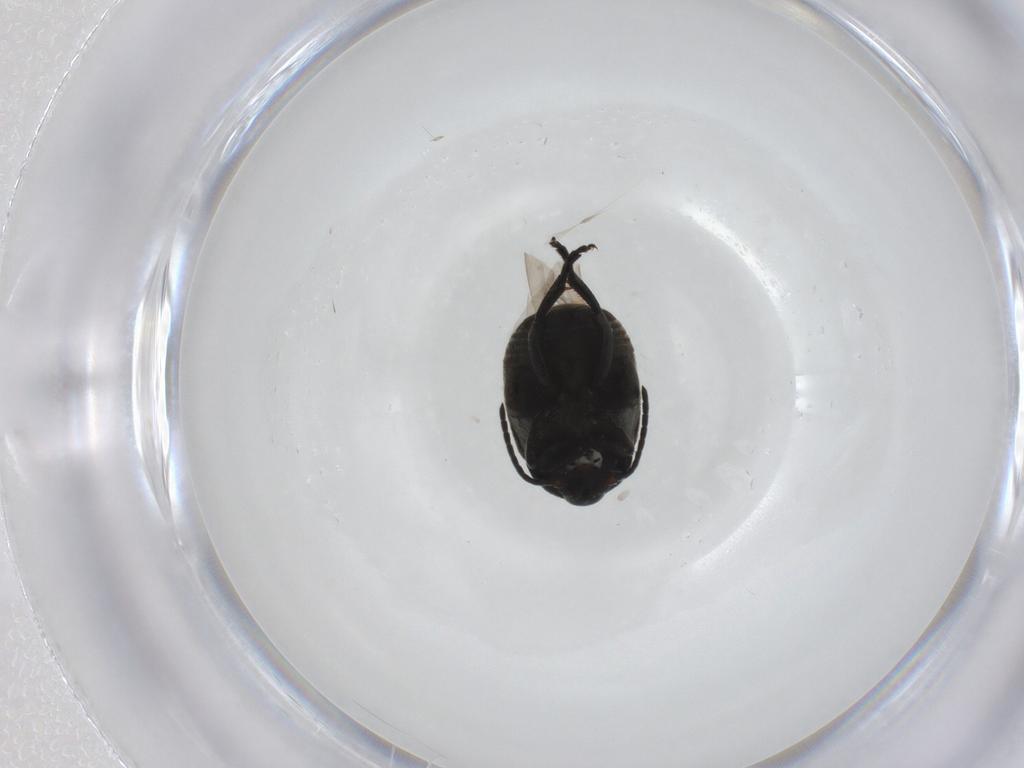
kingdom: Animalia
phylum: Arthropoda
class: Insecta
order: Coleoptera
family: Chrysomelidae
